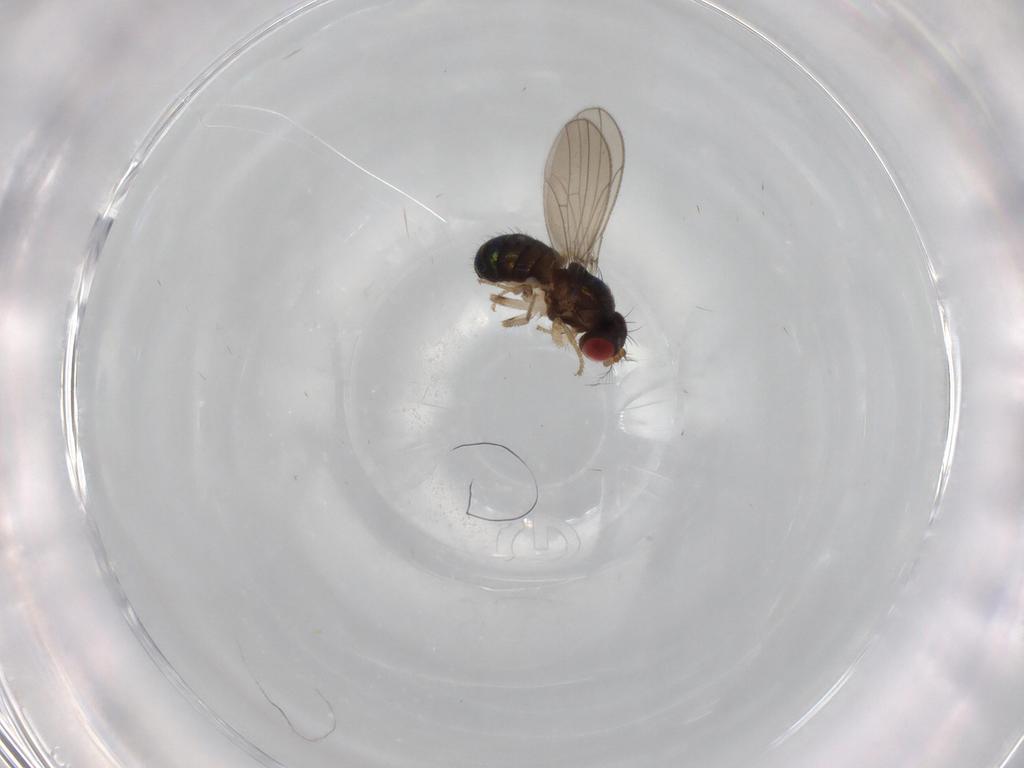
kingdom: Animalia
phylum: Arthropoda
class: Insecta
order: Diptera
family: Drosophilidae
